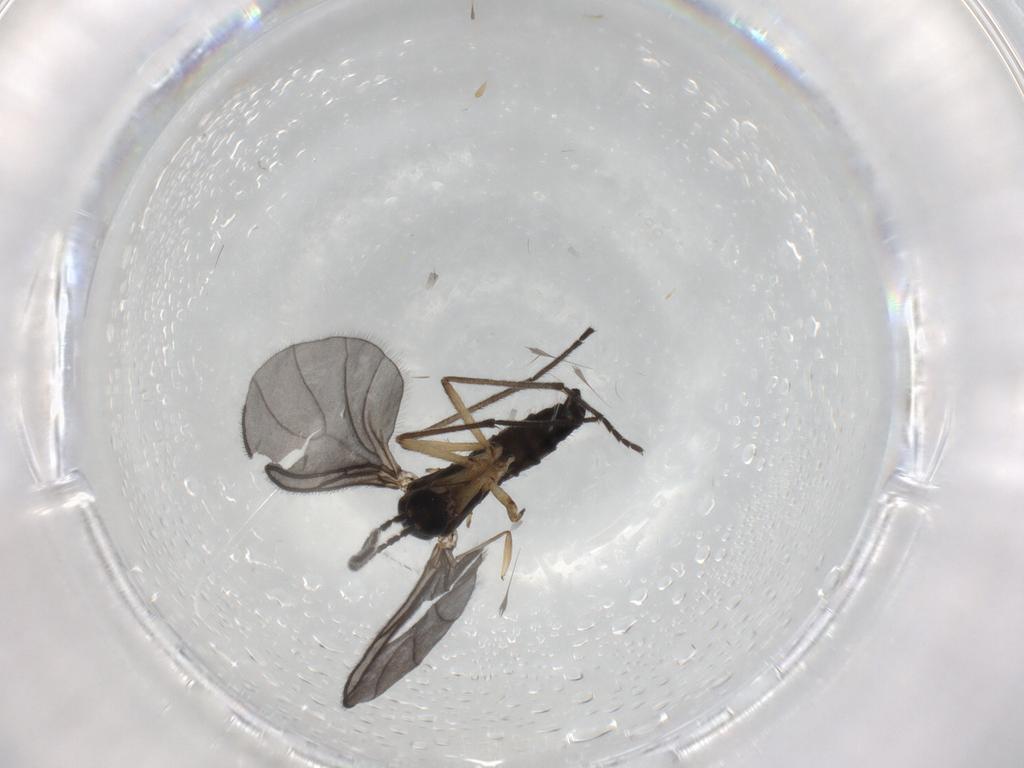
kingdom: Animalia
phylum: Arthropoda
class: Insecta
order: Diptera
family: Sciaridae
